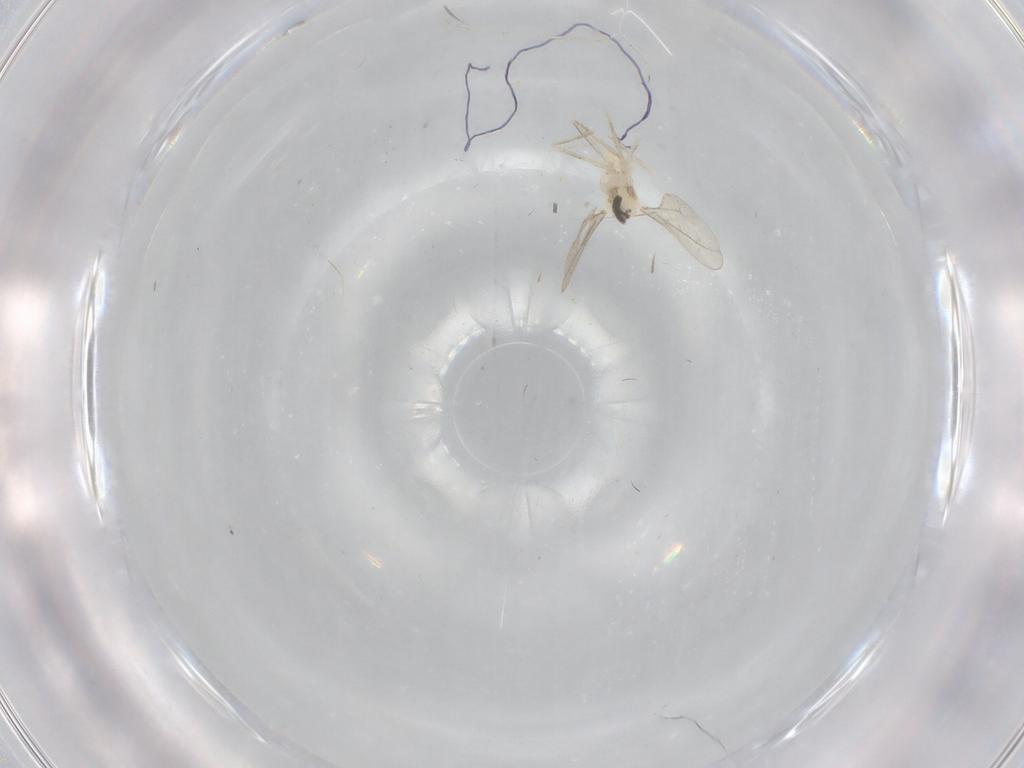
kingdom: Animalia
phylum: Arthropoda
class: Insecta
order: Diptera
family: Cecidomyiidae
